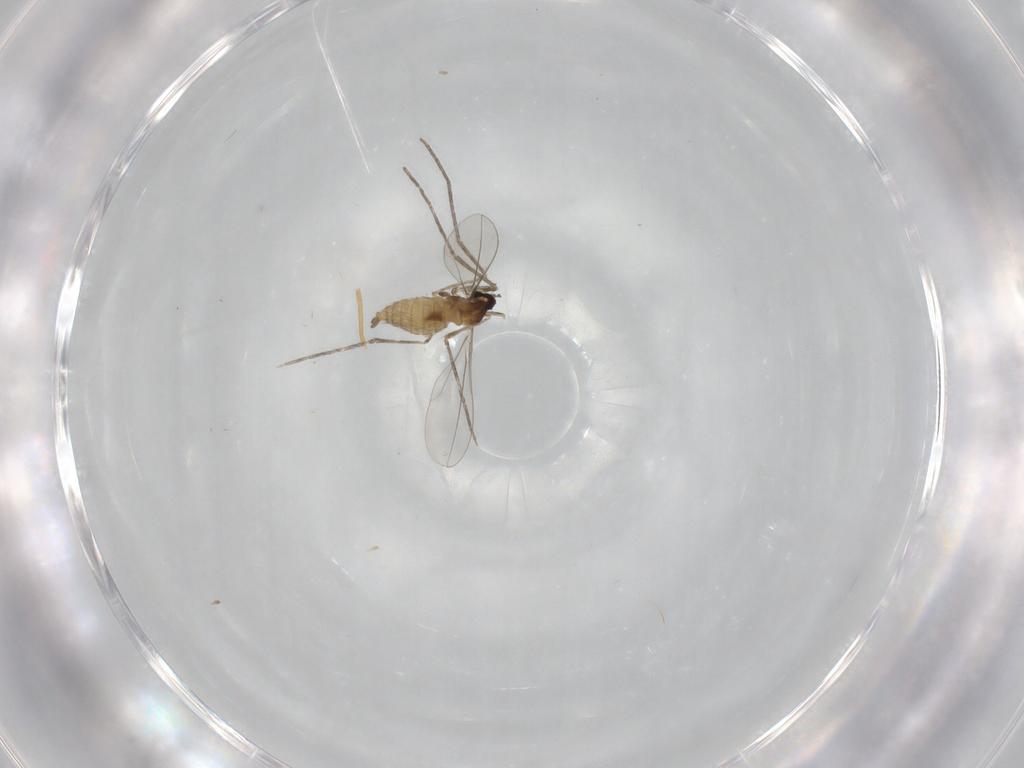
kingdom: Animalia
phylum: Arthropoda
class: Insecta
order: Diptera
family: Cecidomyiidae
